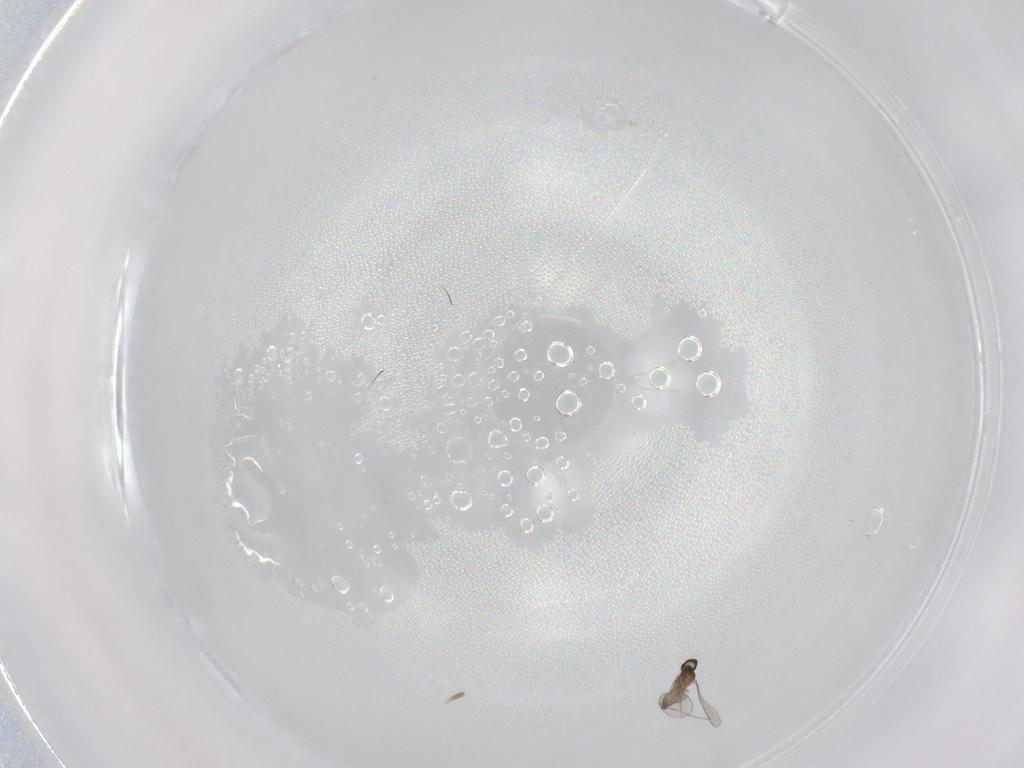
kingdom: Animalia
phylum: Arthropoda
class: Insecta
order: Diptera
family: Cecidomyiidae
